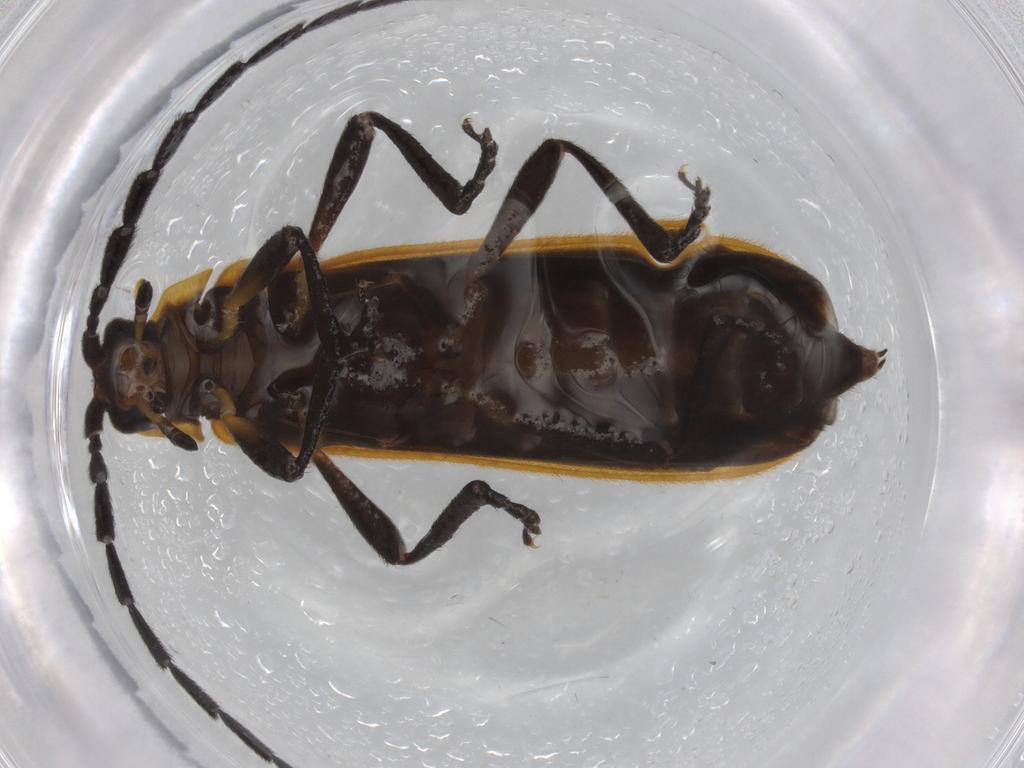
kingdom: Animalia
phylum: Arthropoda
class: Insecta
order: Coleoptera
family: Lycidae
